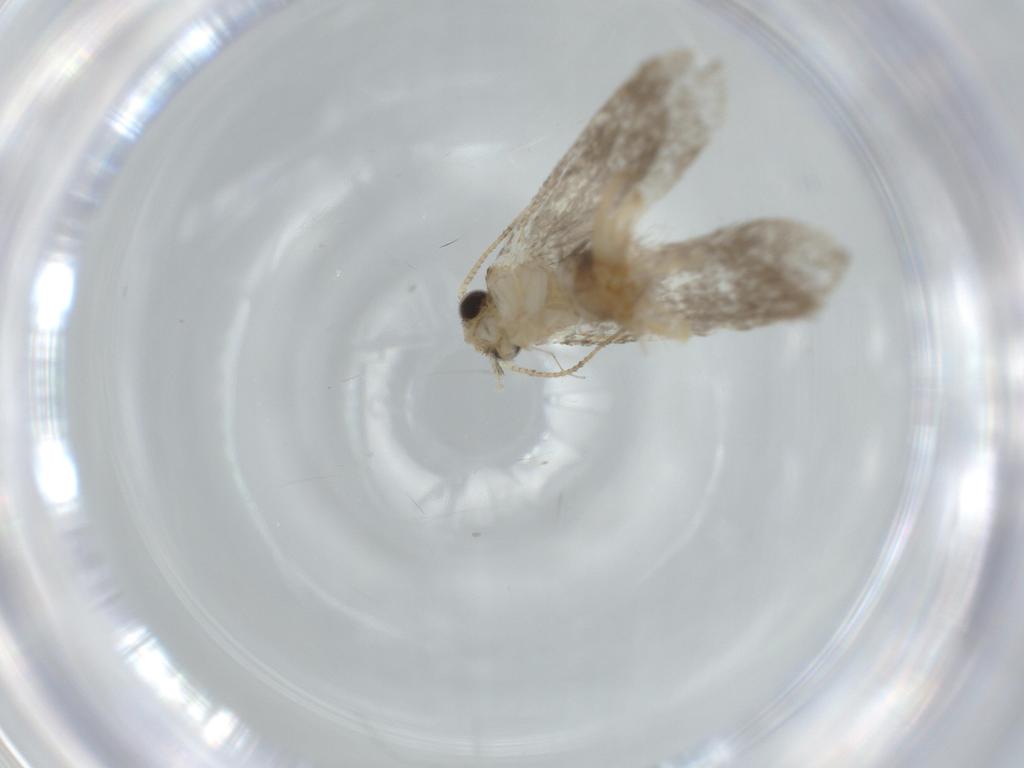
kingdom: Animalia
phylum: Arthropoda
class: Insecta
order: Lepidoptera
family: Tineidae
